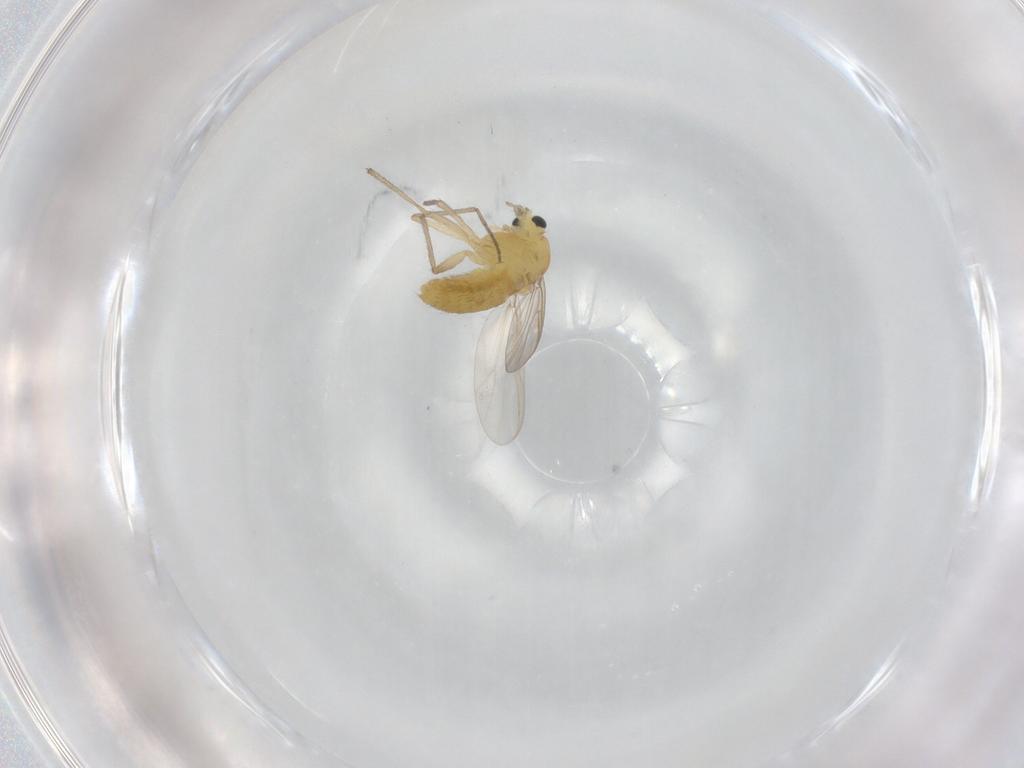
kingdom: Animalia
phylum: Arthropoda
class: Insecta
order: Diptera
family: Chironomidae
